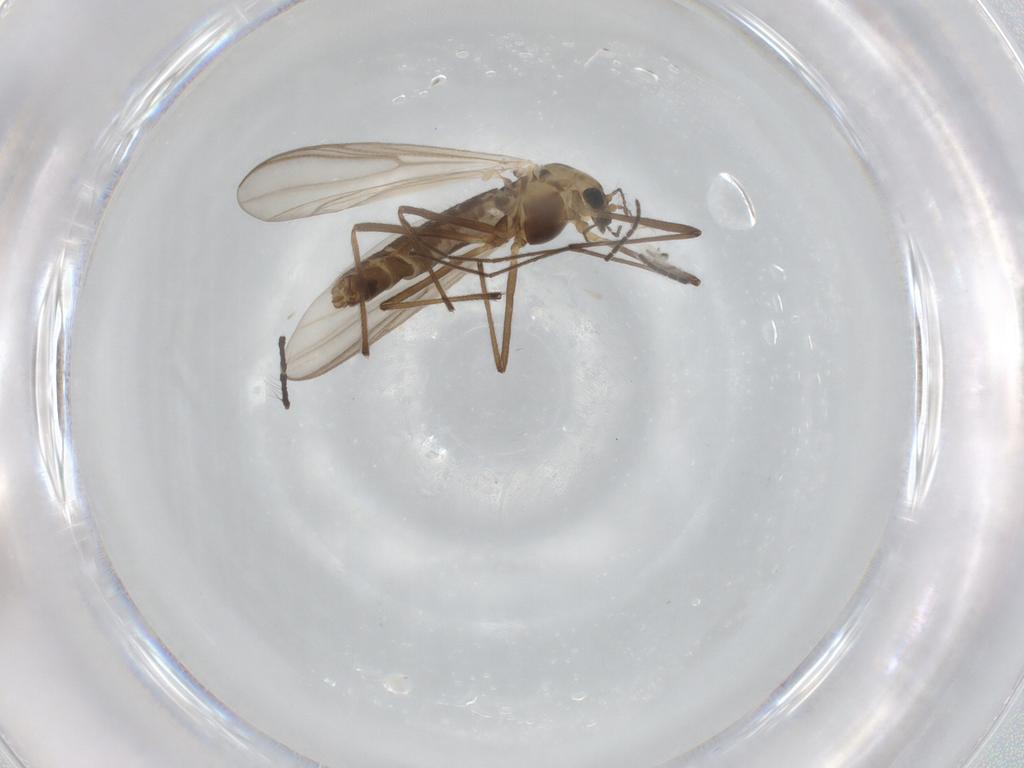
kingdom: Animalia
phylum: Arthropoda
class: Insecta
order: Diptera
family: Chironomidae
